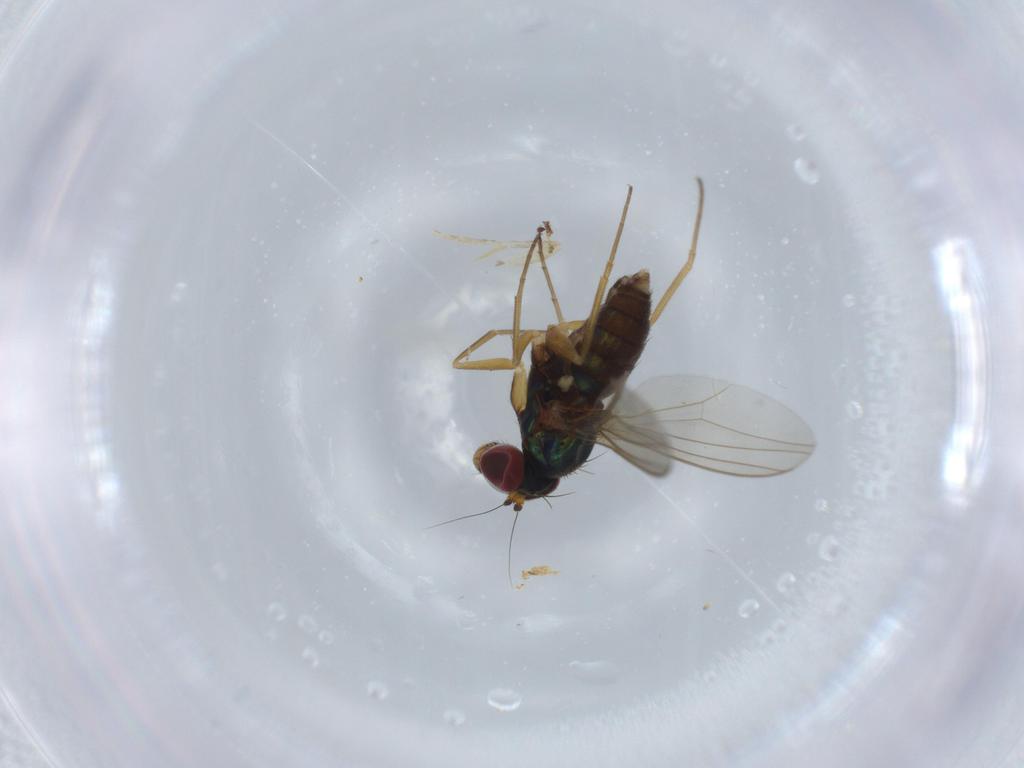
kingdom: Animalia
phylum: Arthropoda
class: Insecta
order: Diptera
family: Dolichopodidae
